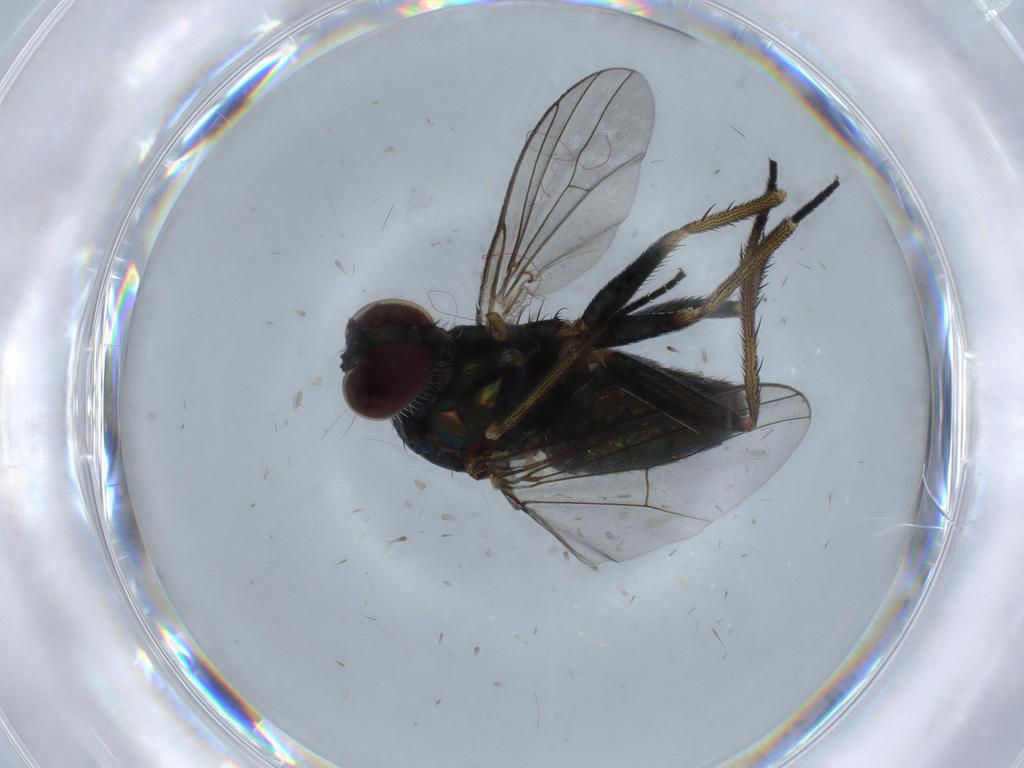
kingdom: Animalia
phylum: Arthropoda
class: Insecta
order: Diptera
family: Dolichopodidae
